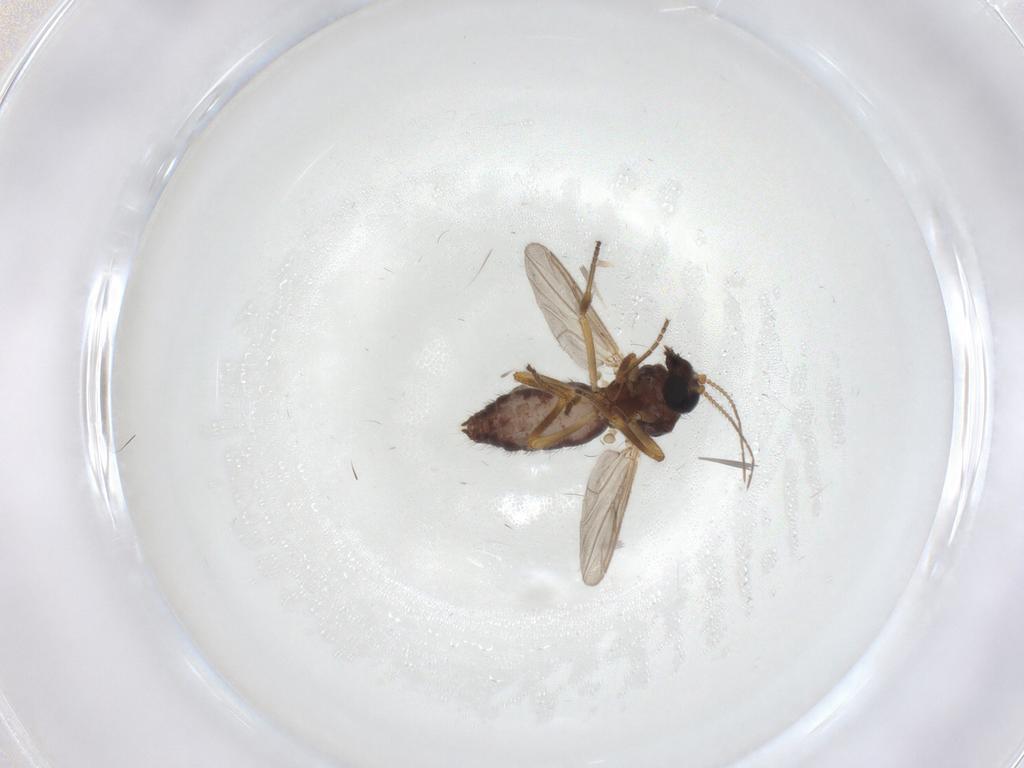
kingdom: Animalia
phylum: Arthropoda
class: Insecta
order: Diptera
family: Ceratopogonidae
